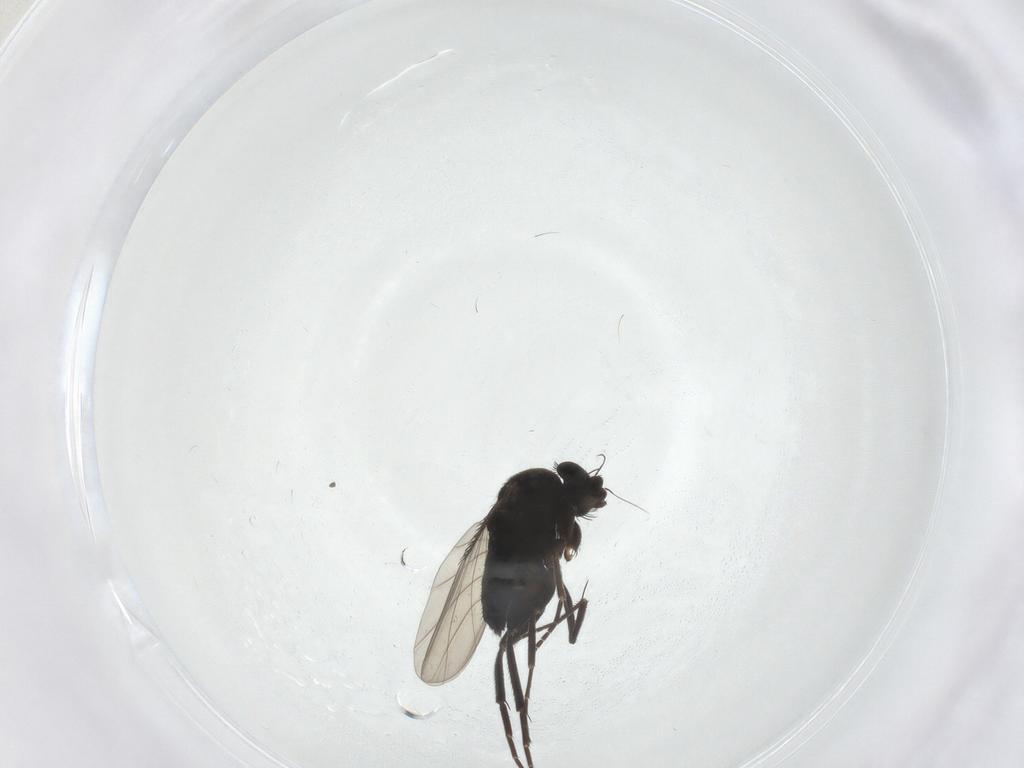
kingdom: Animalia
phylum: Arthropoda
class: Insecta
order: Diptera
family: Phoridae
